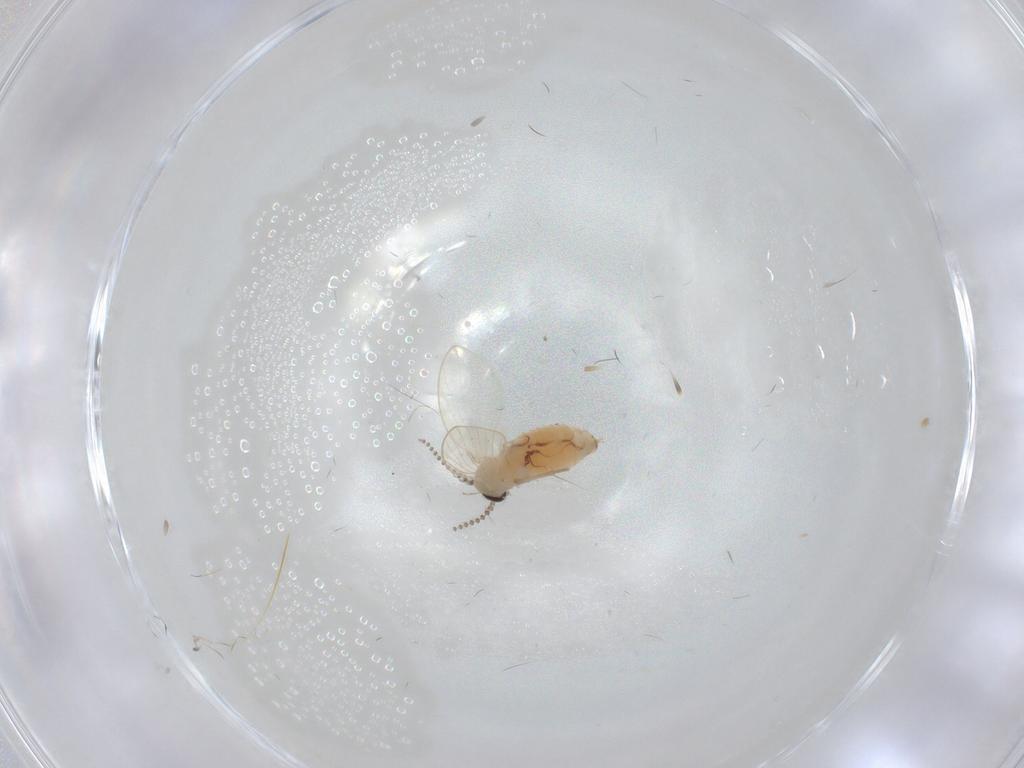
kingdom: Animalia
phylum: Arthropoda
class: Insecta
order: Diptera
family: Psychodidae
